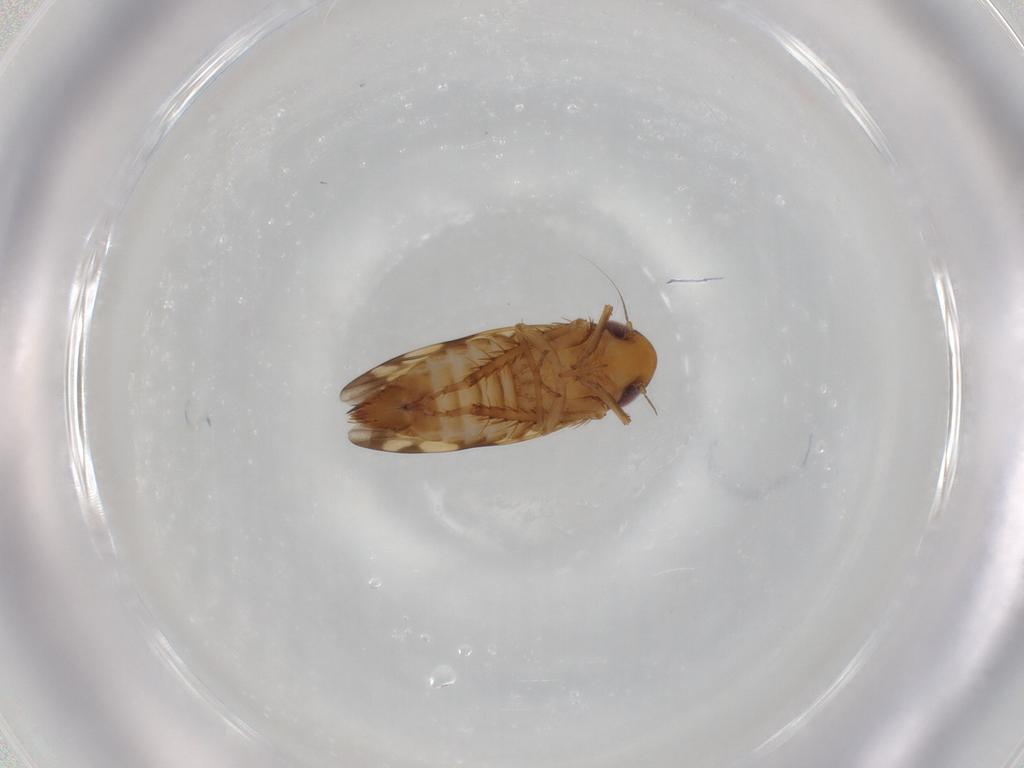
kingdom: Animalia
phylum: Arthropoda
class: Insecta
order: Hemiptera
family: Cicadellidae
